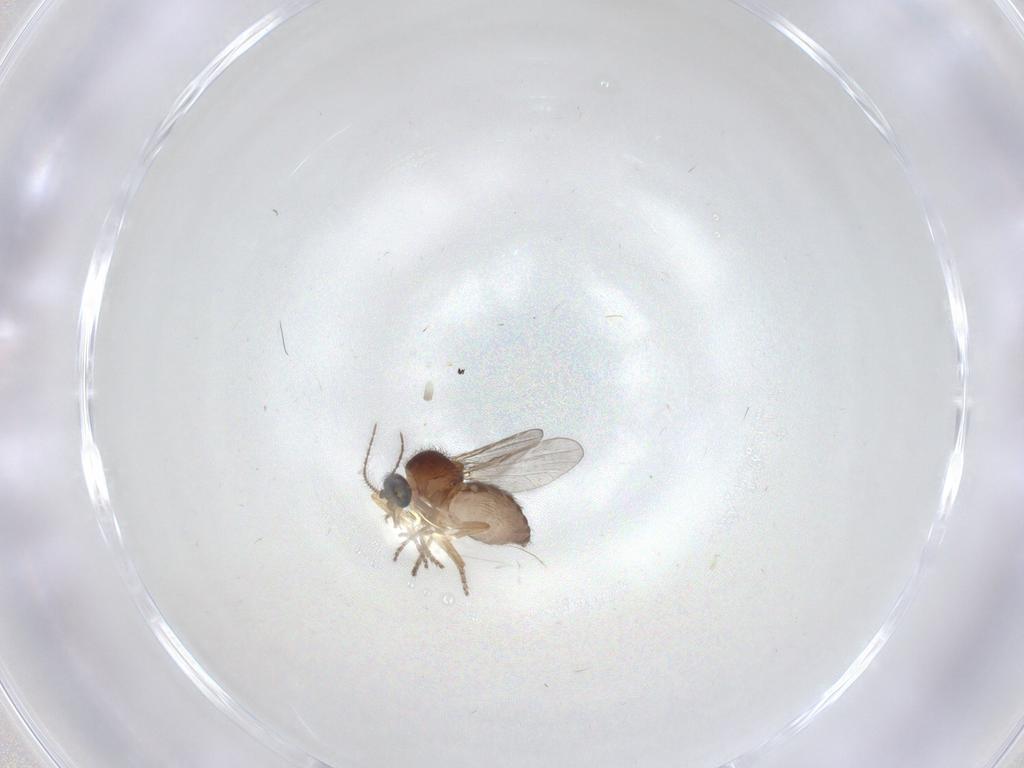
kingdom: Animalia
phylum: Arthropoda
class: Insecta
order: Diptera
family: Ceratopogonidae
